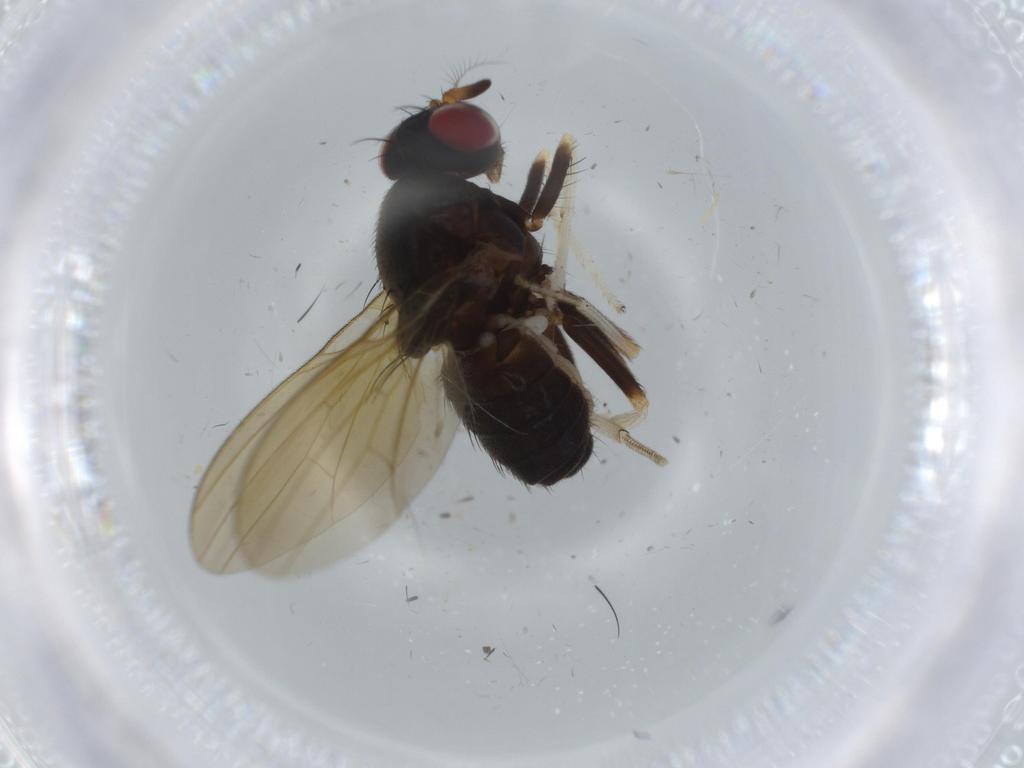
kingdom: Animalia
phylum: Arthropoda
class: Insecta
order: Diptera
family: Lauxaniidae
